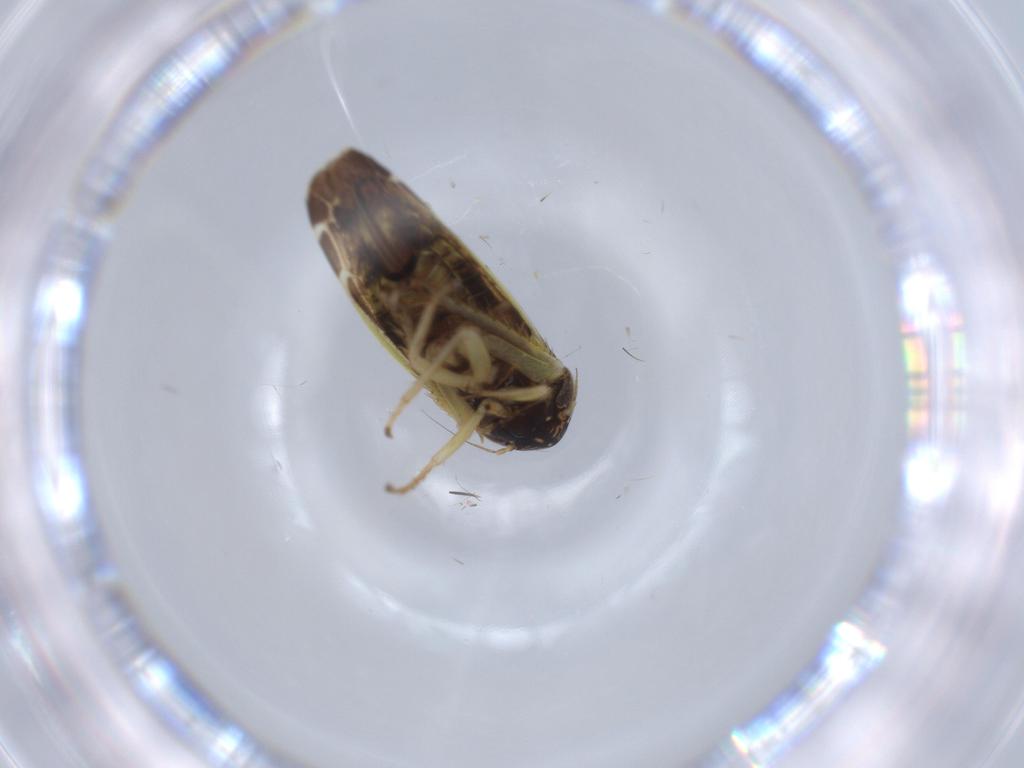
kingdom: Animalia
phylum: Arthropoda
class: Insecta
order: Hemiptera
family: Cicadellidae
